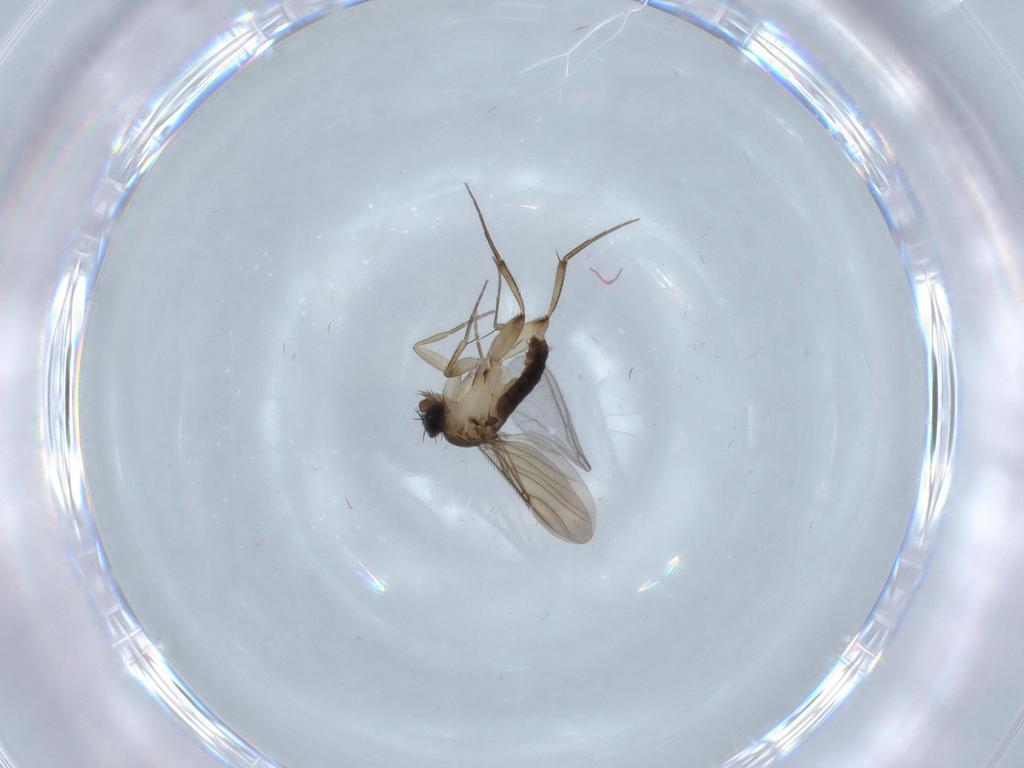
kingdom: Animalia
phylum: Arthropoda
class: Insecta
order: Diptera
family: Phoridae
